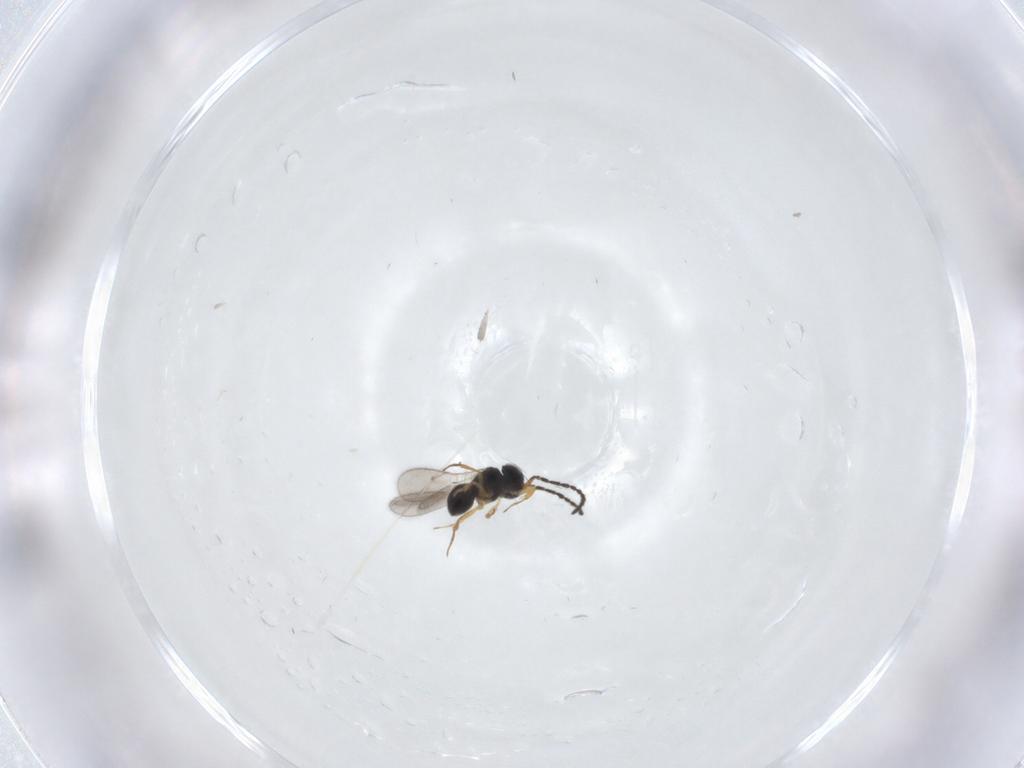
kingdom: Animalia
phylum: Arthropoda
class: Insecta
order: Hymenoptera
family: Scelionidae
